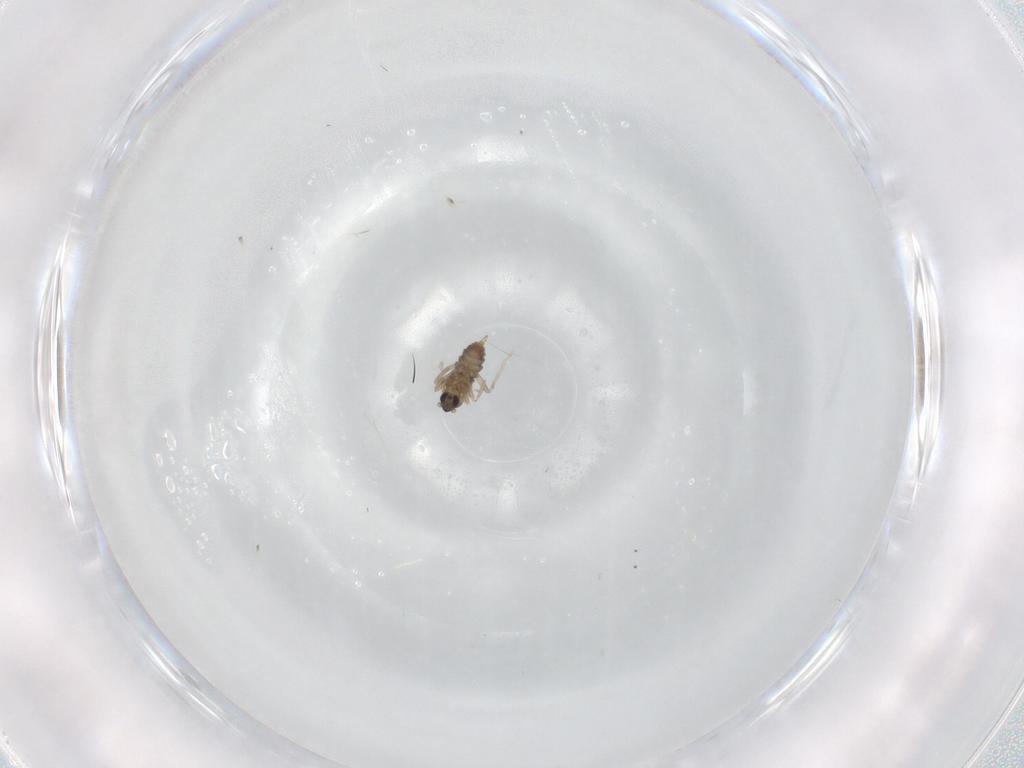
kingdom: Animalia
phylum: Arthropoda
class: Insecta
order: Diptera
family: Cecidomyiidae
